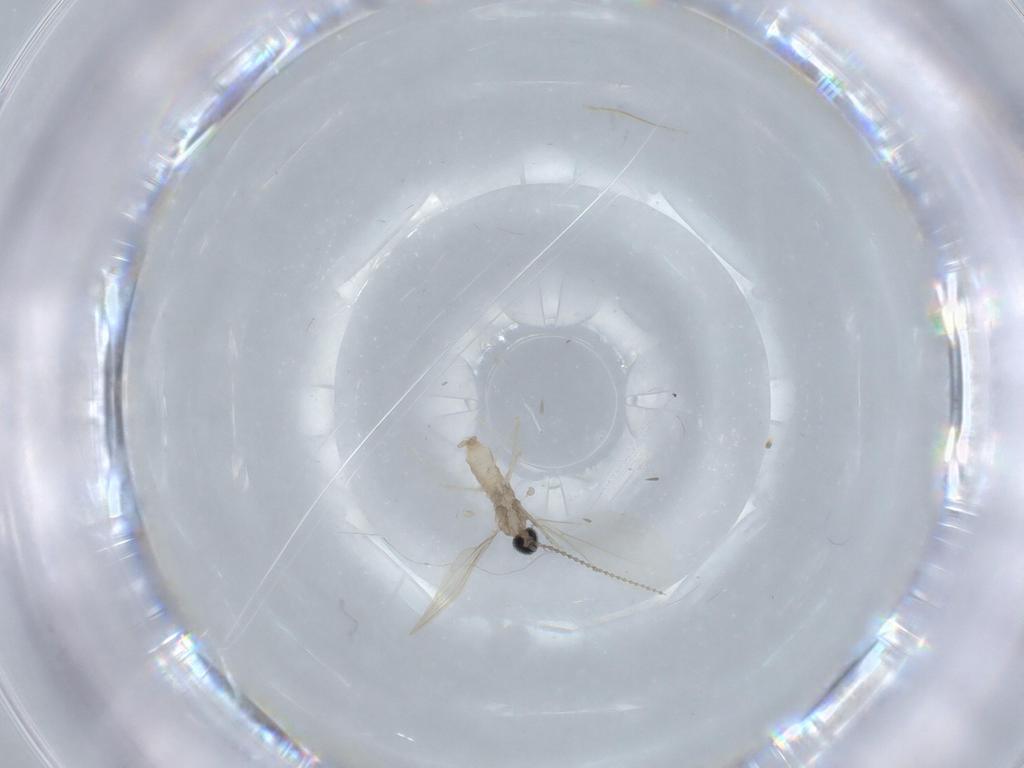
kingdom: Animalia
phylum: Arthropoda
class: Insecta
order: Diptera
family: Cecidomyiidae
